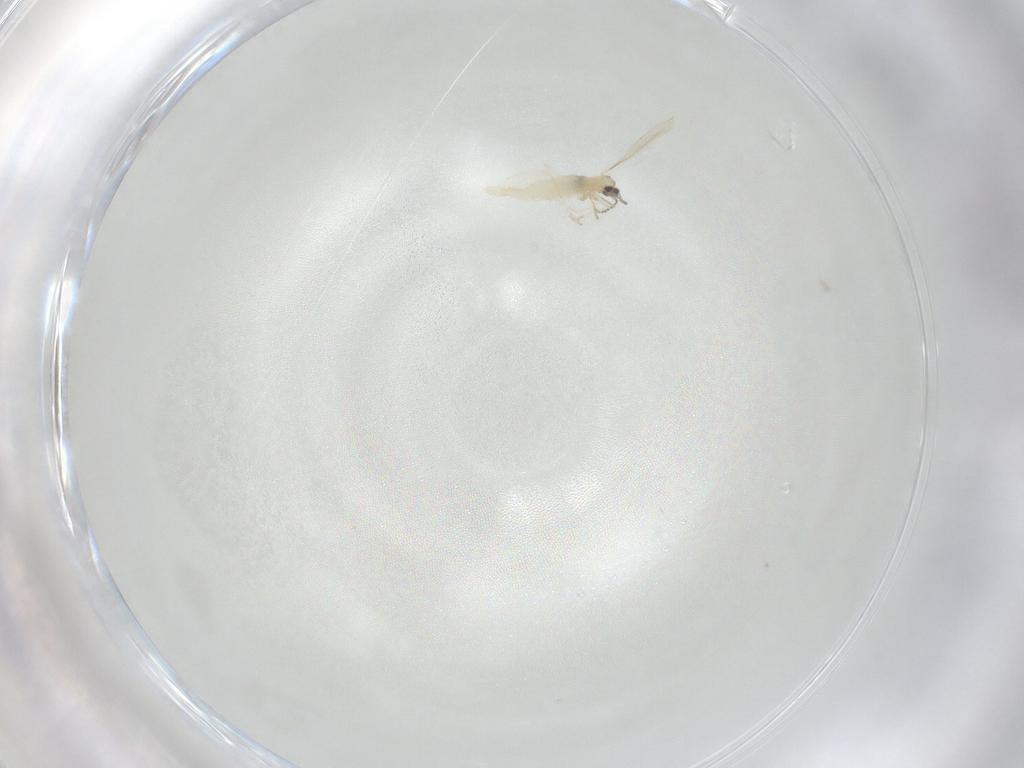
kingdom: Animalia
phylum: Arthropoda
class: Insecta
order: Diptera
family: Cecidomyiidae
